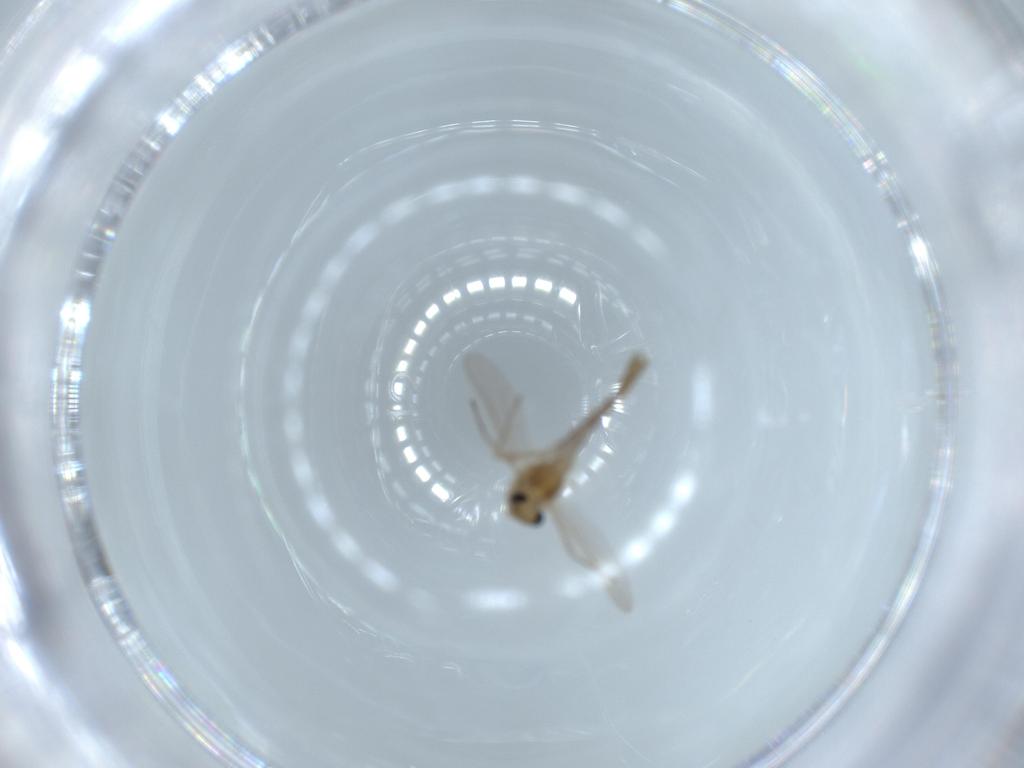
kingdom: Animalia
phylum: Arthropoda
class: Insecta
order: Diptera
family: Chironomidae
